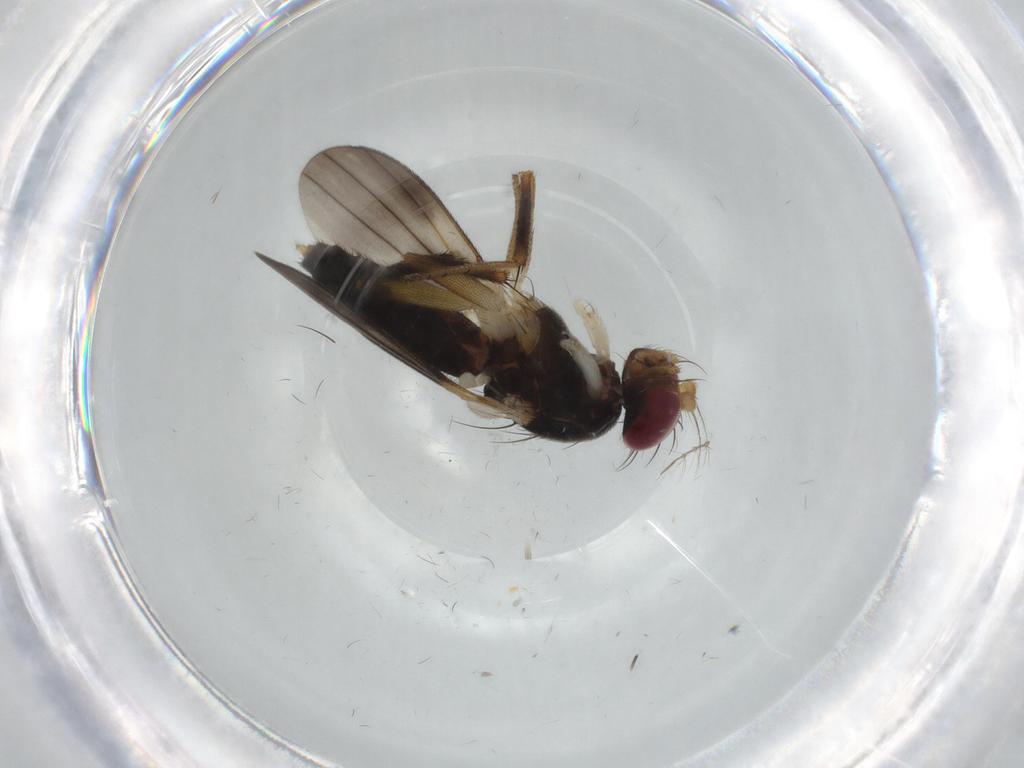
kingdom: Animalia
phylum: Arthropoda
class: Insecta
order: Diptera
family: Clusiidae
